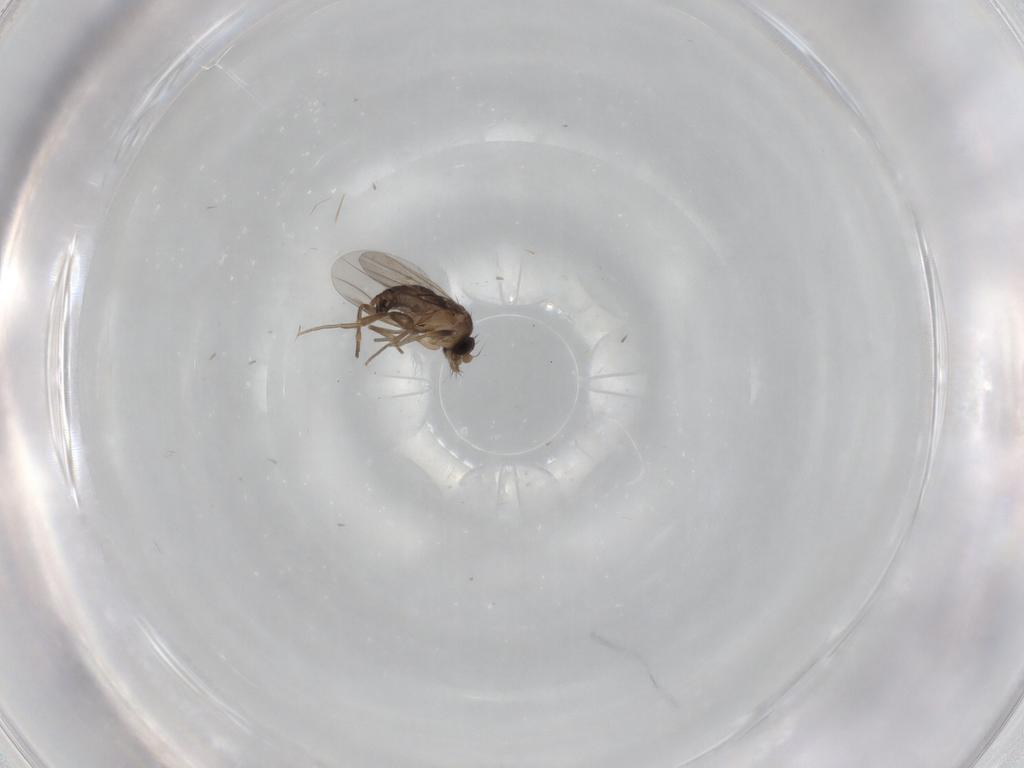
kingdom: Animalia
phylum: Arthropoda
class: Insecta
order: Diptera
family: Phoridae
